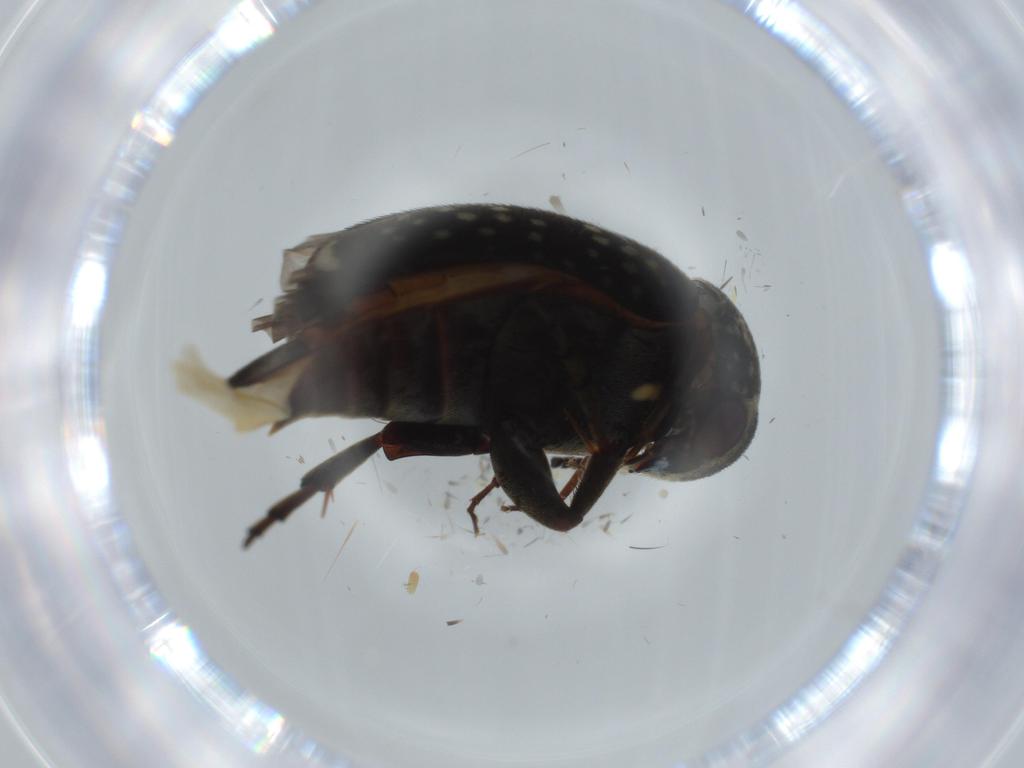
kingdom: Animalia
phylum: Arthropoda
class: Insecta
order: Coleoptera
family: Mordellidae
